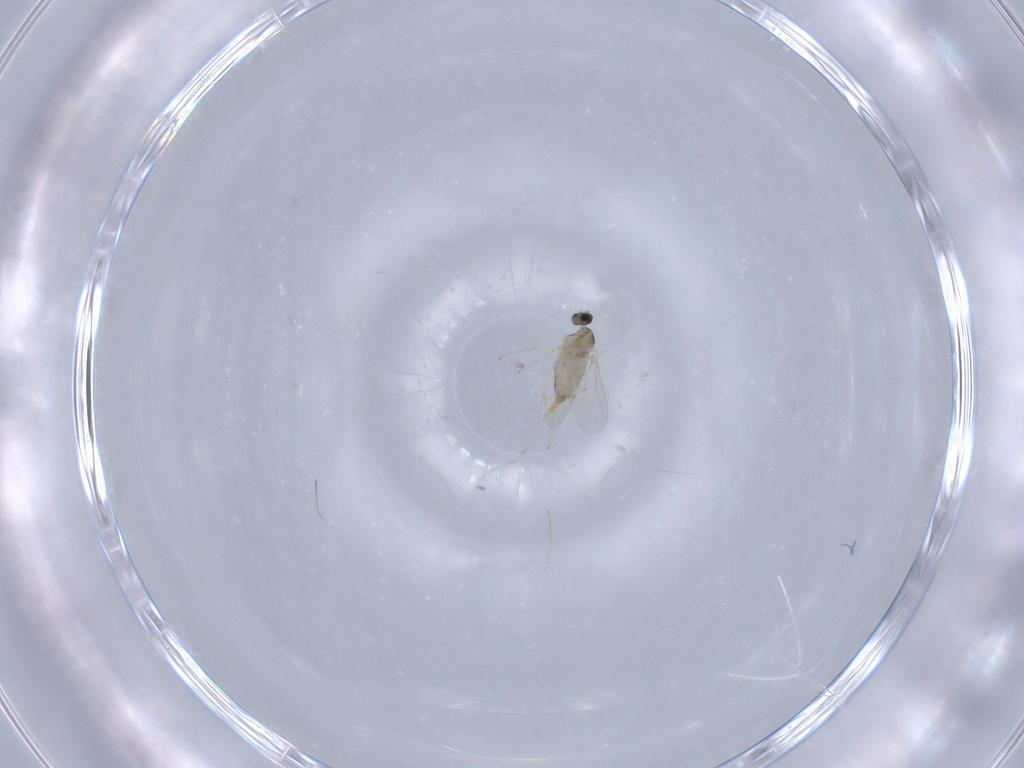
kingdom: Animalia
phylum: Arthropoda
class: Insecta
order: Diptera
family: Cecidomyiidae
